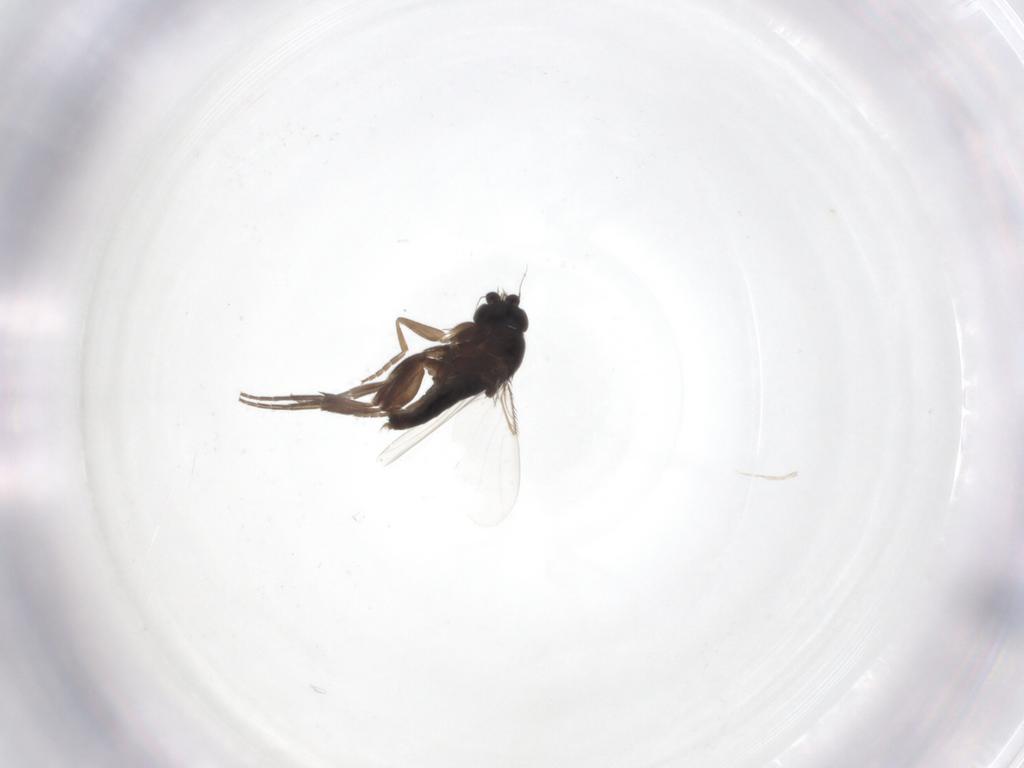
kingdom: Animalia
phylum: Arthropoda
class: Insecta
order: Diptera
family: Phoridae
